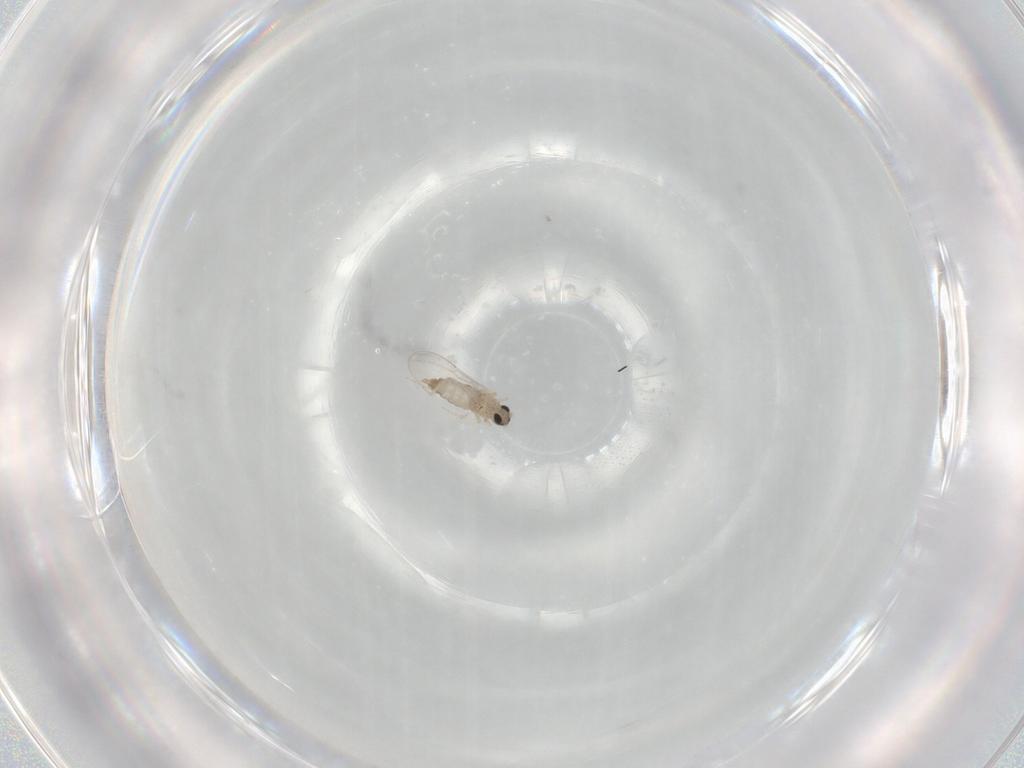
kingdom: Animalia
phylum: Arthropoda
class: Insecta
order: Diptera
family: Cecidomyiidae
